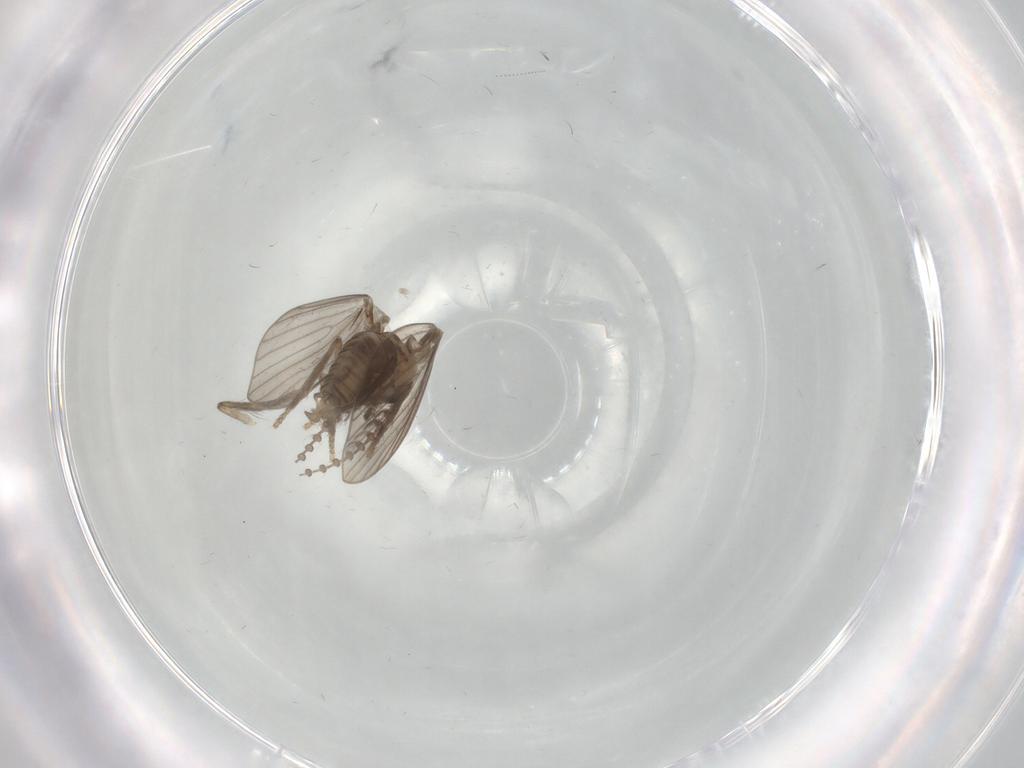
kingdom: Animalia
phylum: Arthropoda
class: Insecta
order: Diptera
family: Psychodidae
